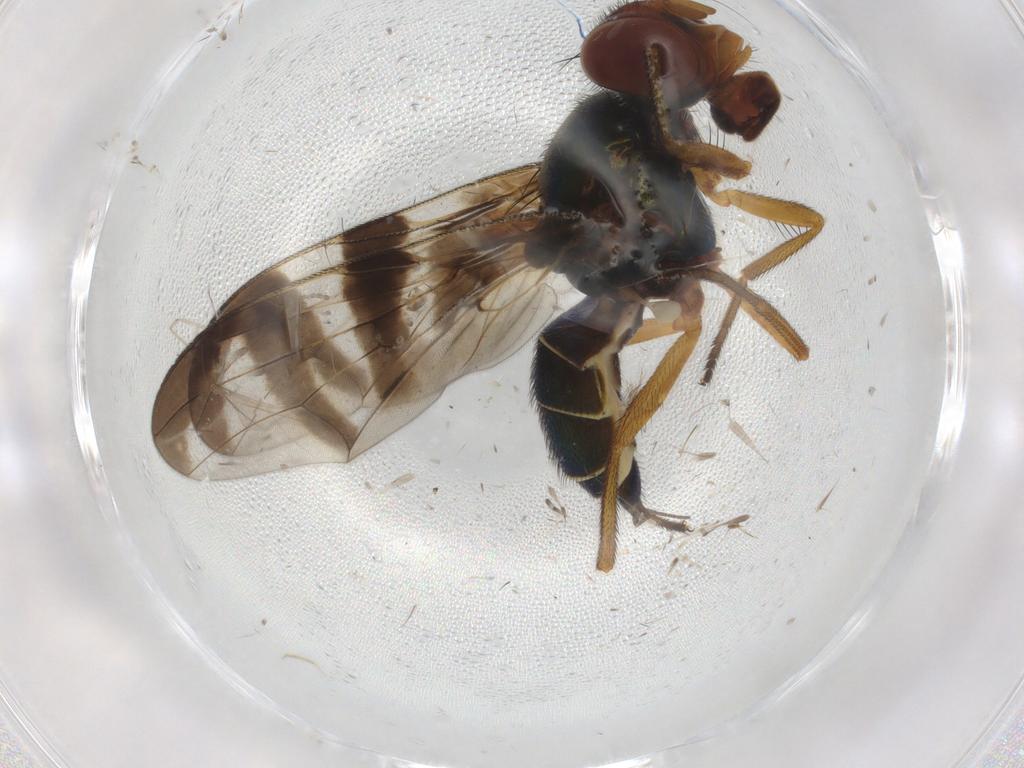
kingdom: Animalia
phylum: Arthropoda
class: Insecta
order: Diptera
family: Platystomatidae
